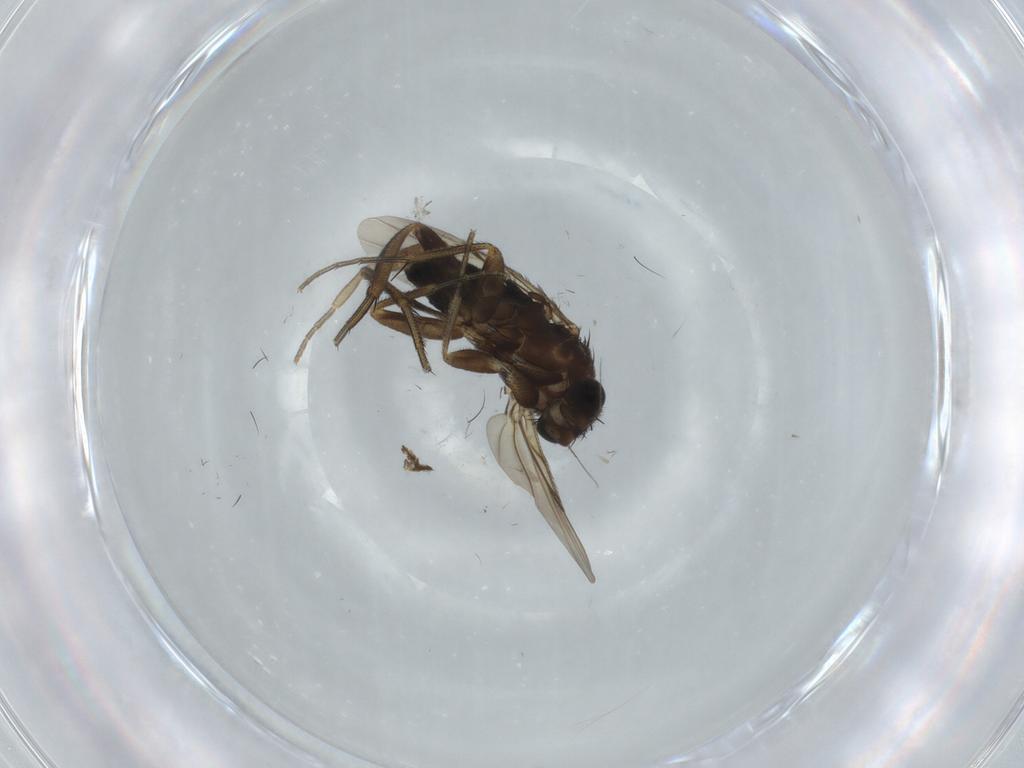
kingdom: Animalia
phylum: Arthropoda
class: Insecta
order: Diptera
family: Phoridae
